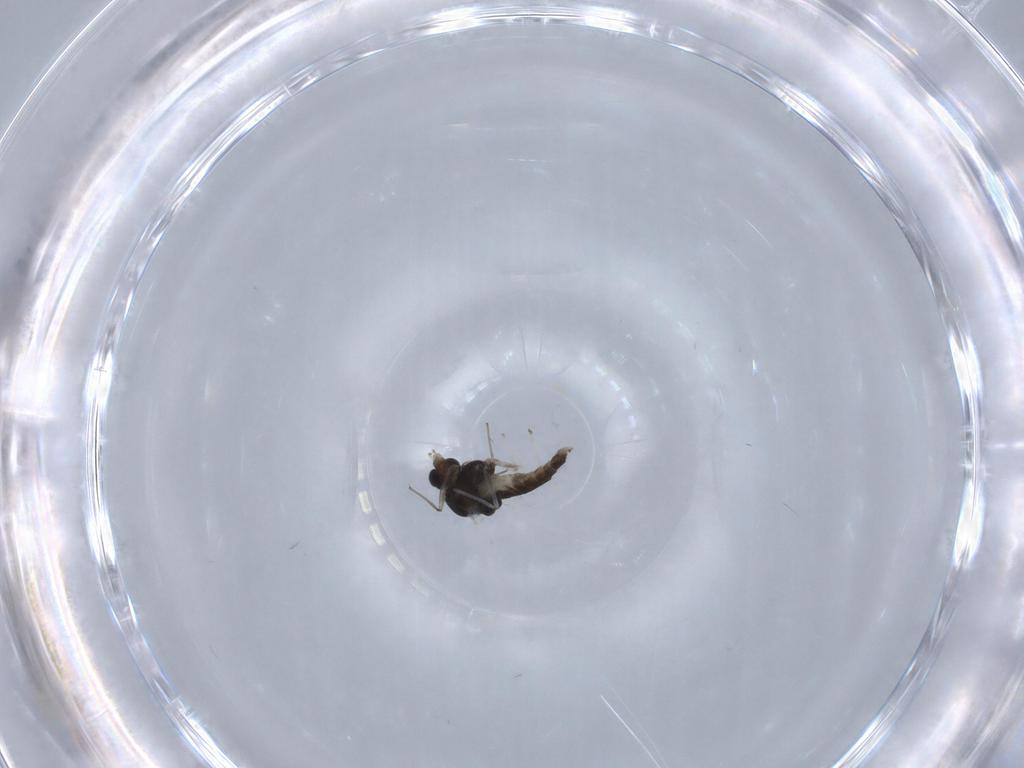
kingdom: Animalia
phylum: Arthropoda
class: Insecta
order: Diptera
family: Chironomidae
